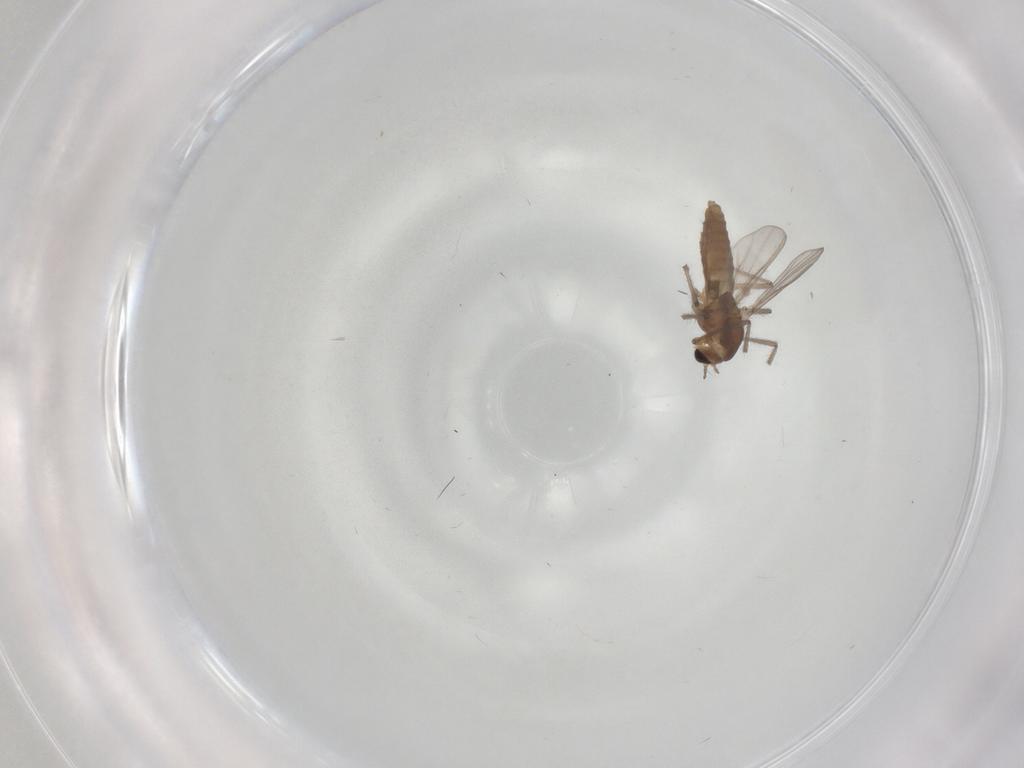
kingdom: Animalia
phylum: Arthropoda
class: Insecta
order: Diptera
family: Chironomidae
